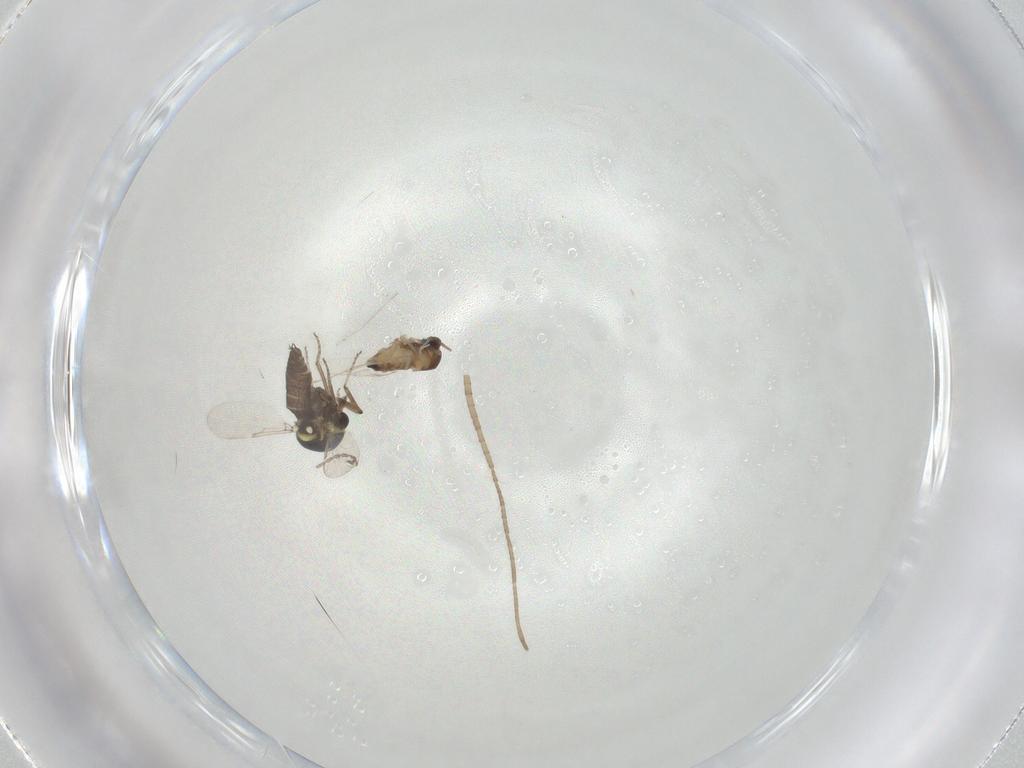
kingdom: Animalia
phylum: Arthropoda
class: Insecta
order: Diptera
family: Cecidomyiidae
